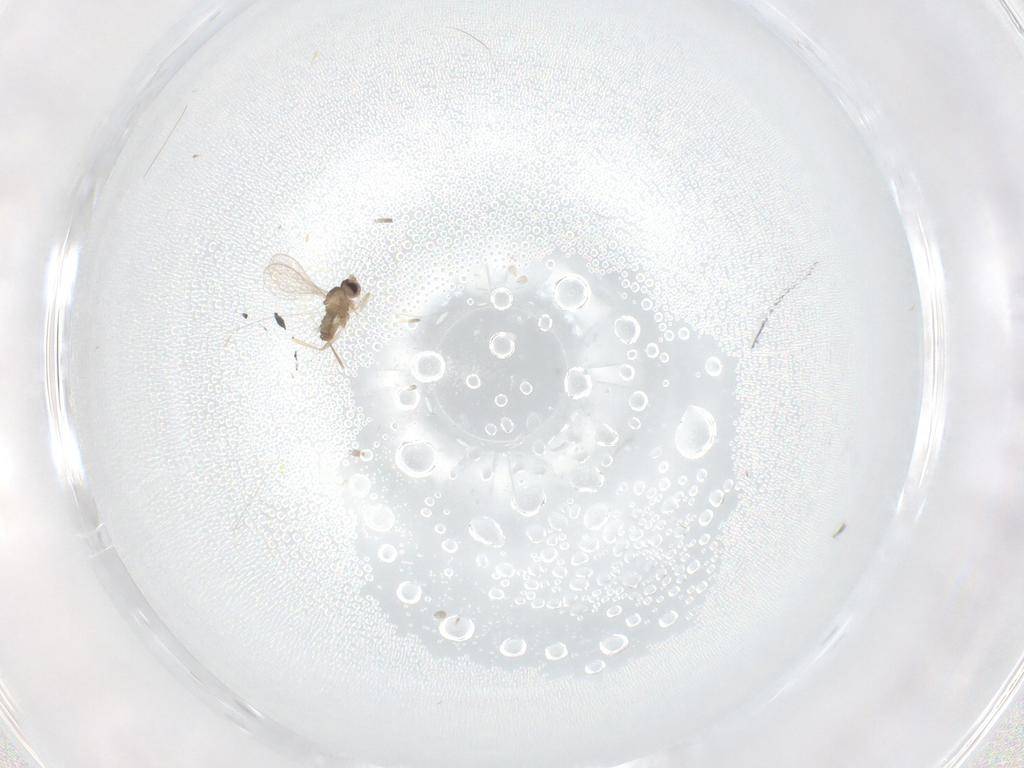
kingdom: Animalia
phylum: Arthropoda
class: Insecta
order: Diptera
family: Cecidomyiidae
